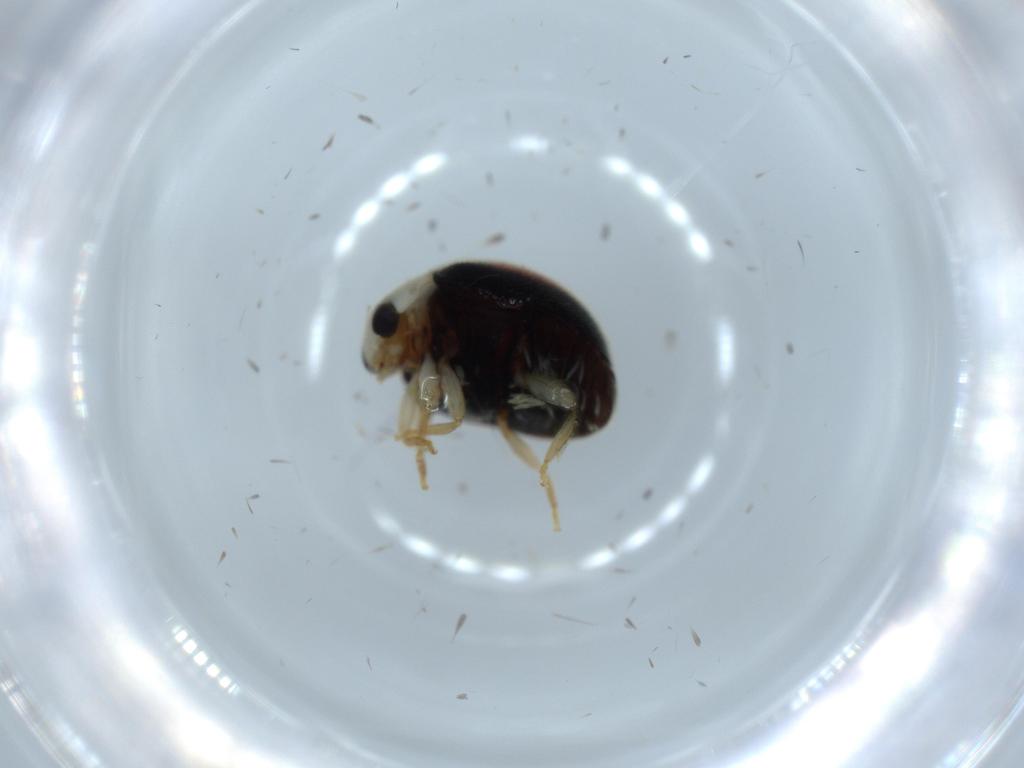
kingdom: Animalia
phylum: Arthropoda
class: Insecta
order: Coleoptera
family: Coccinellidae
